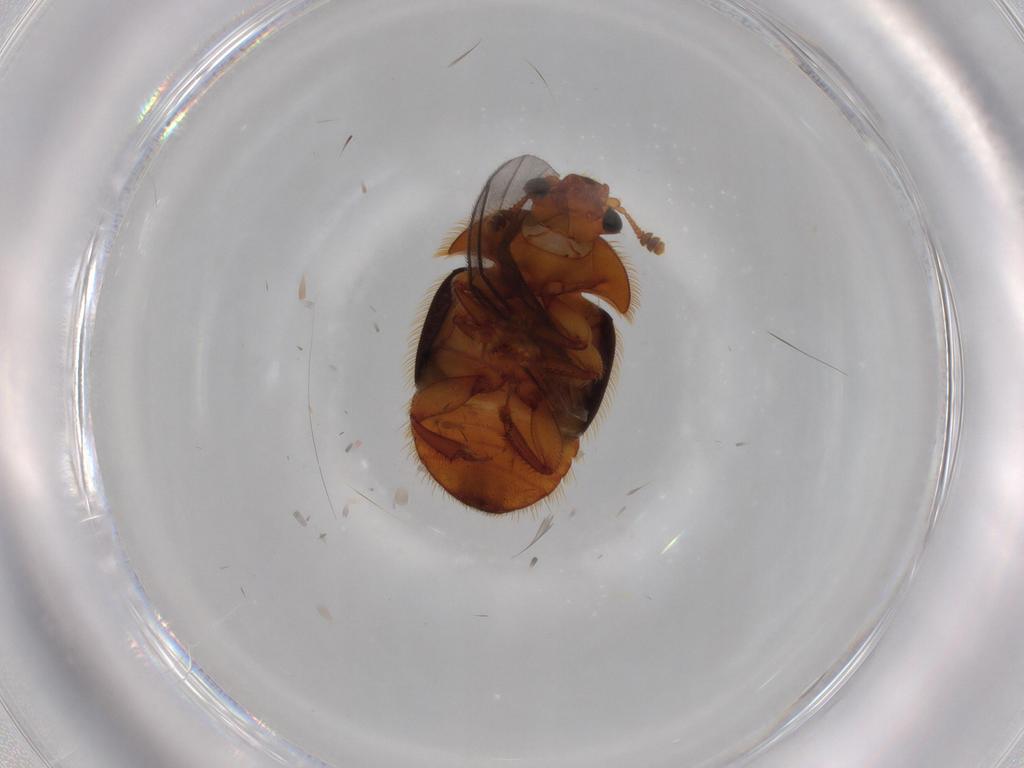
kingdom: Animalia
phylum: Arthropoda
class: Insecta
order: Coleoptera
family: Nitidulidae
